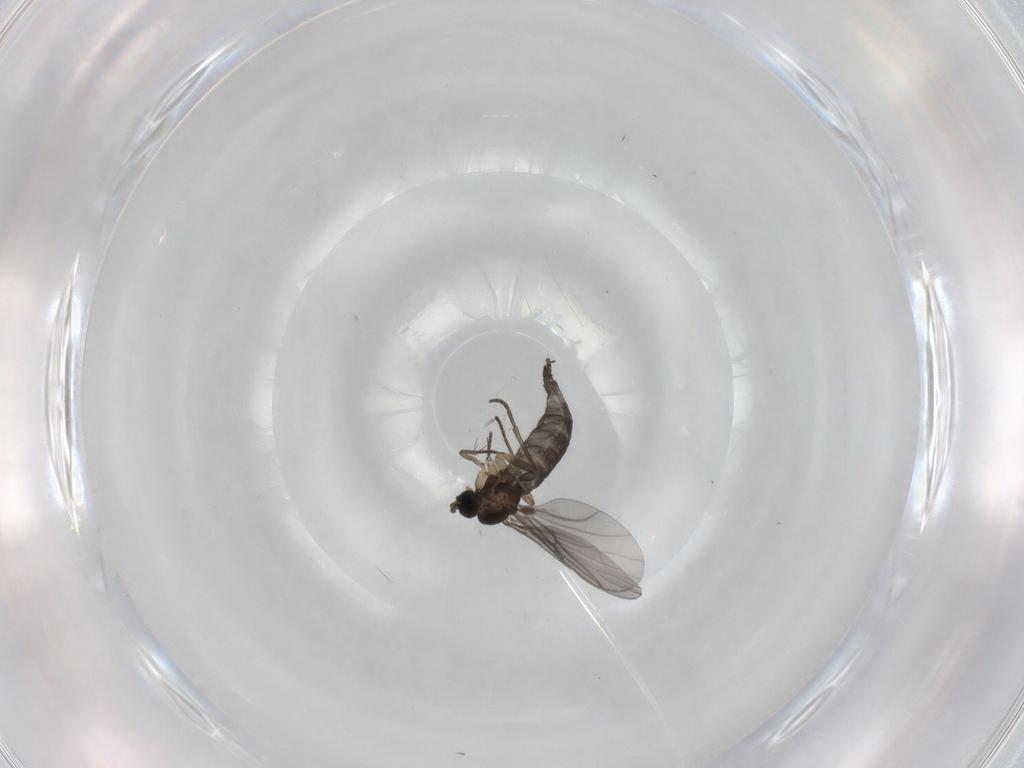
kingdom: Animalia
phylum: Arthropoda
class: Insecta
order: Diptera
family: Sciaridae
